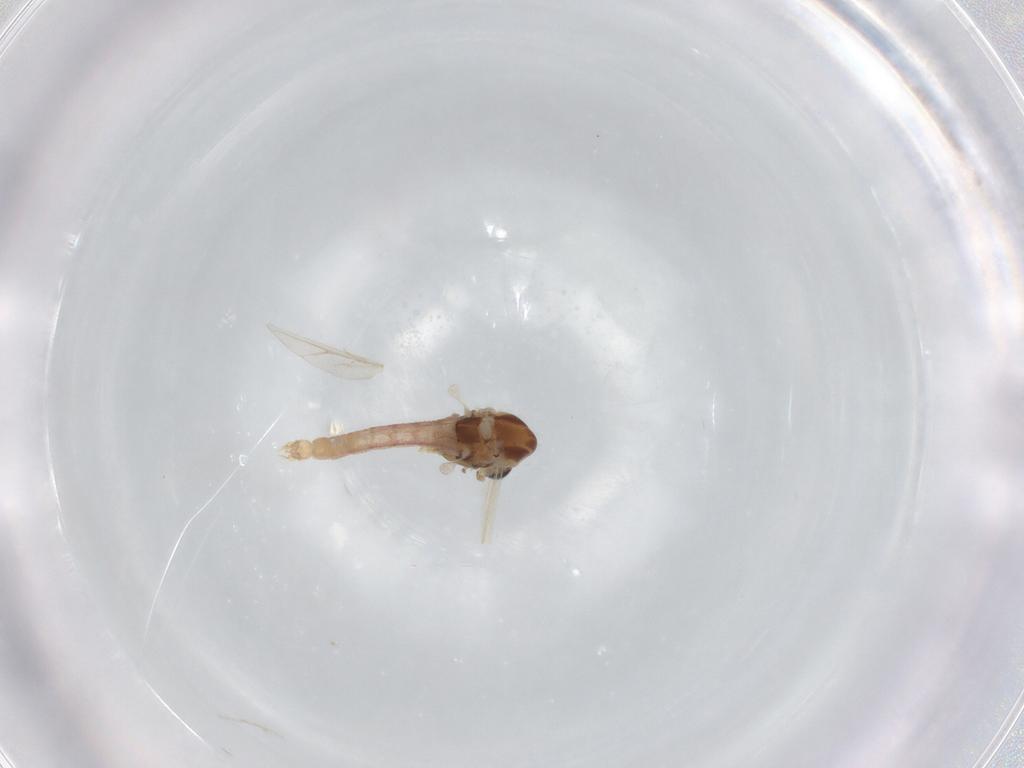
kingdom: Animalia
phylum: Arthropoda
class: Insecta
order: Diptera
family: Chironomidae
